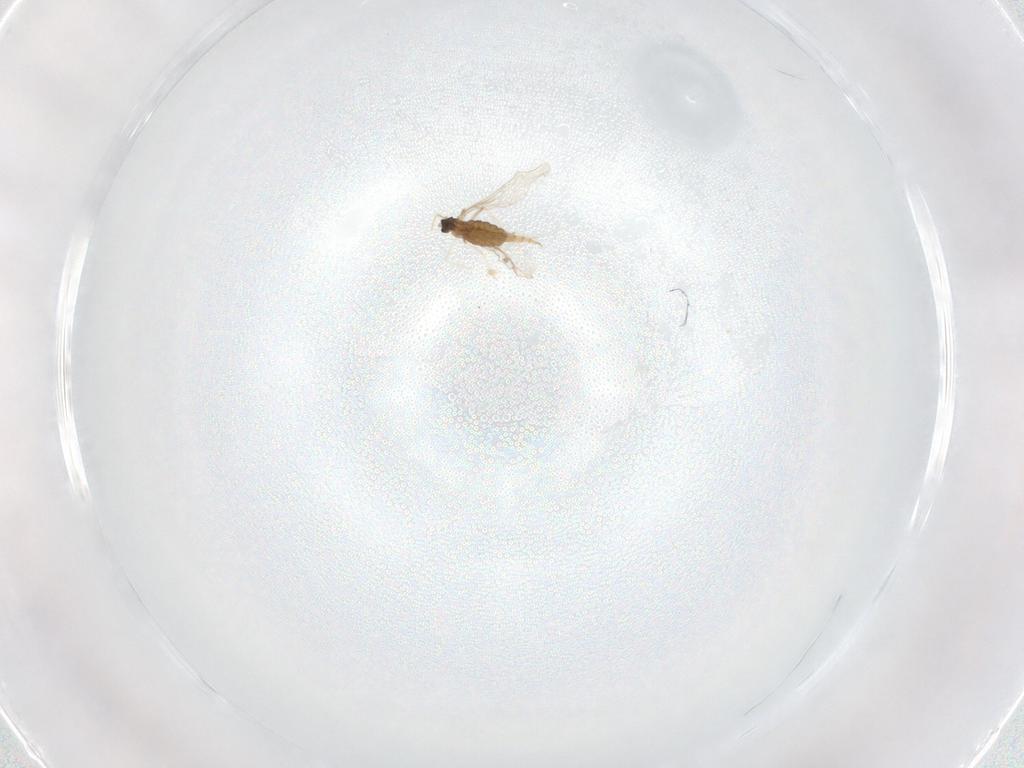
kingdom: Animalia
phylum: Arthropoda
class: Insecta
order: Diptera
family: Cecidomyiidae
